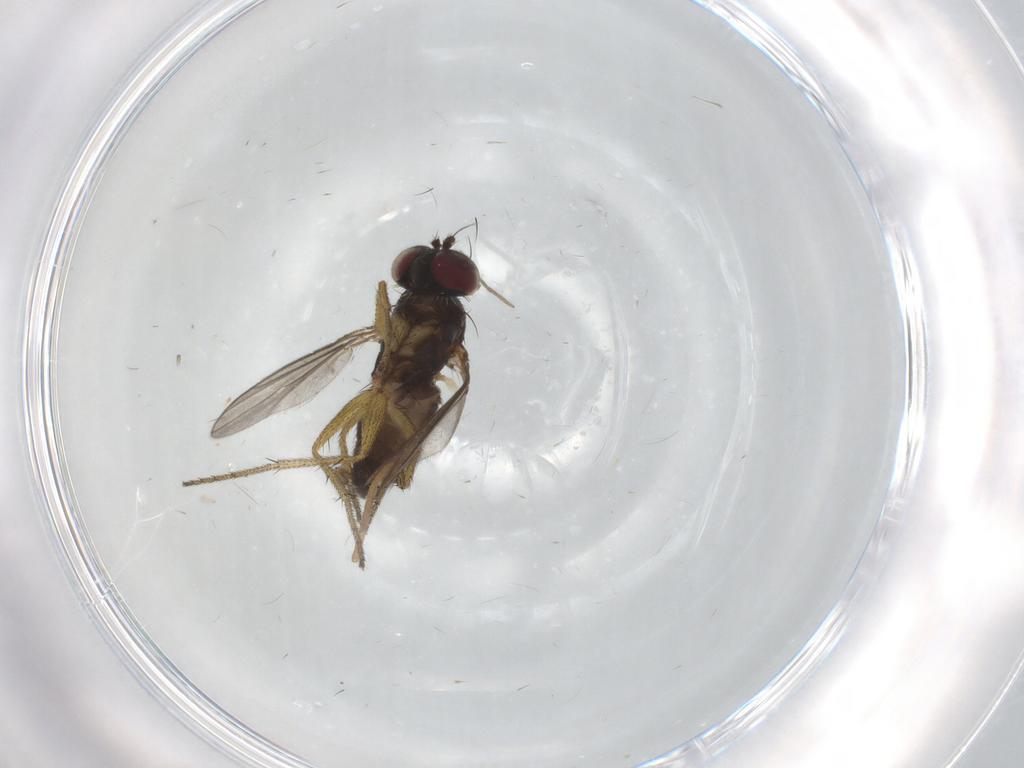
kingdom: Animalia
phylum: Arthropoda
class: Insecta
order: Diptera
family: Chironomidae
